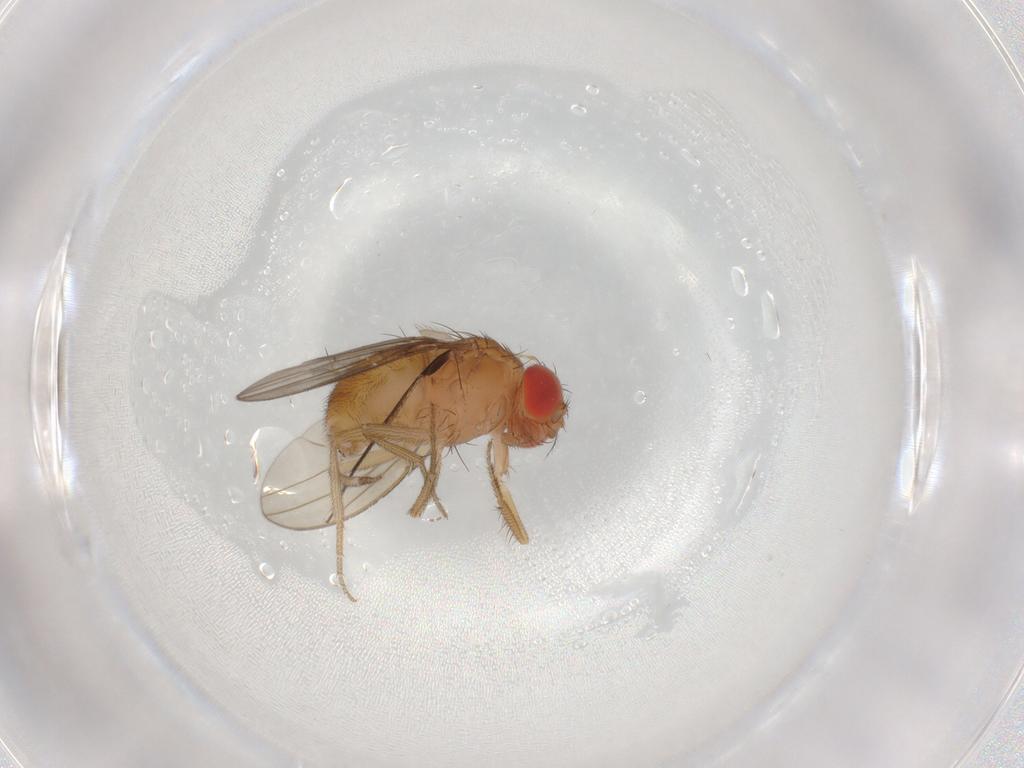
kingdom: Animalia
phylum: Arthropoda
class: Insecta
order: Diptera
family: Drosophilidae
